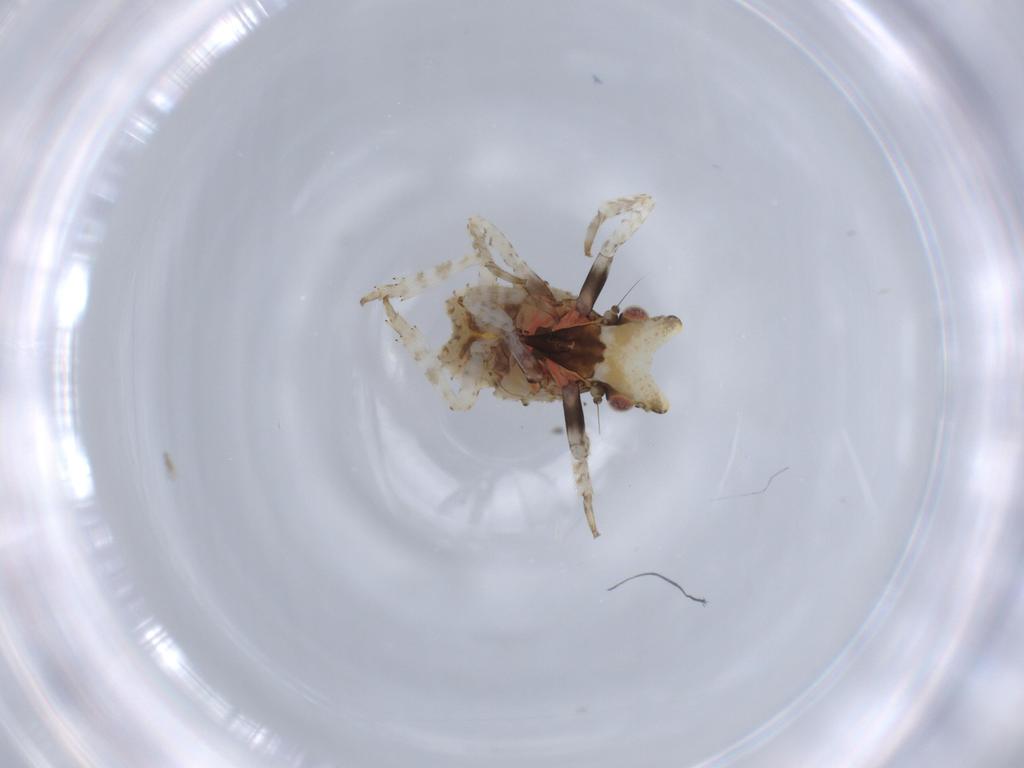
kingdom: Animalia
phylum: Arthropoda
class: Insecta
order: Hemiptera
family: Fulgoridae
